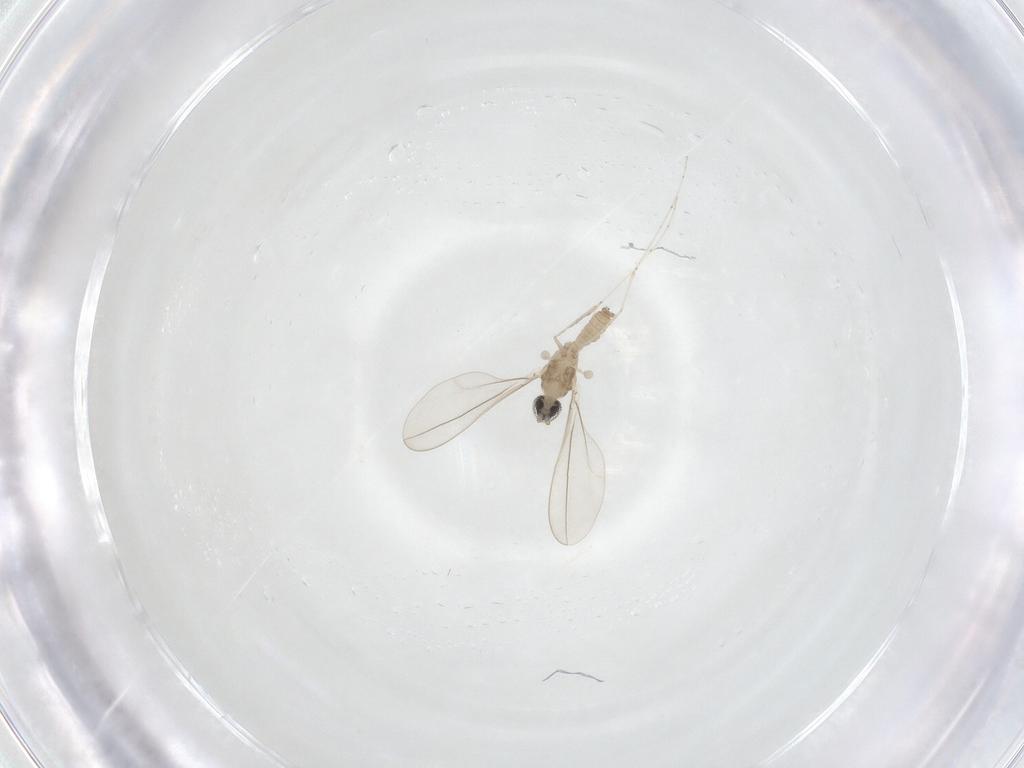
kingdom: Animalia
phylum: Arthropoda
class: Insecta
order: Diptera
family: Cecidomyiidae
